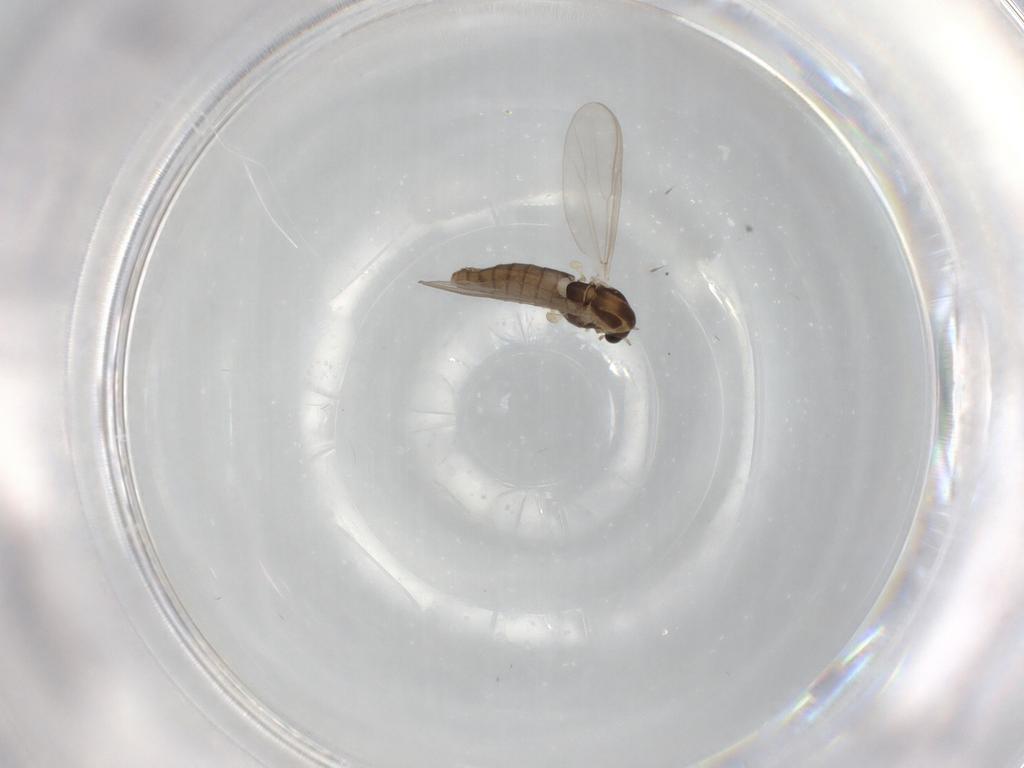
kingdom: Animalia
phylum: Arthropoda
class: Insecta
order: Diptera
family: Chironomidae
